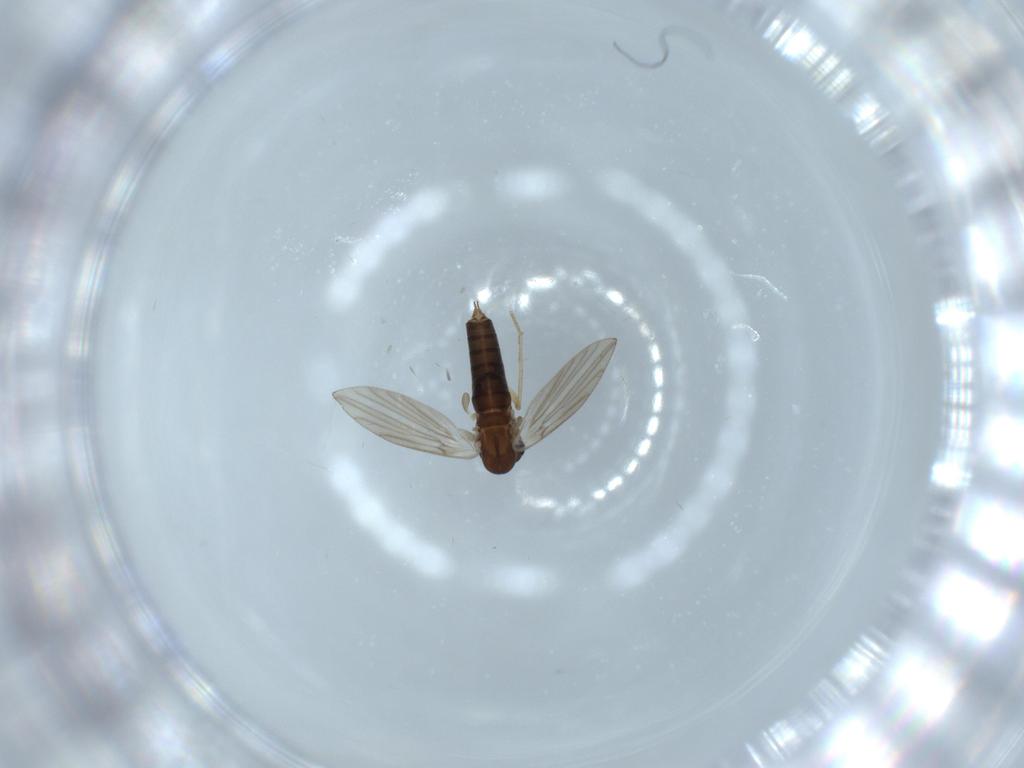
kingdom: Animalia
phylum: Arthropoda
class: Insecta
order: Diptera
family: Psychodidae
